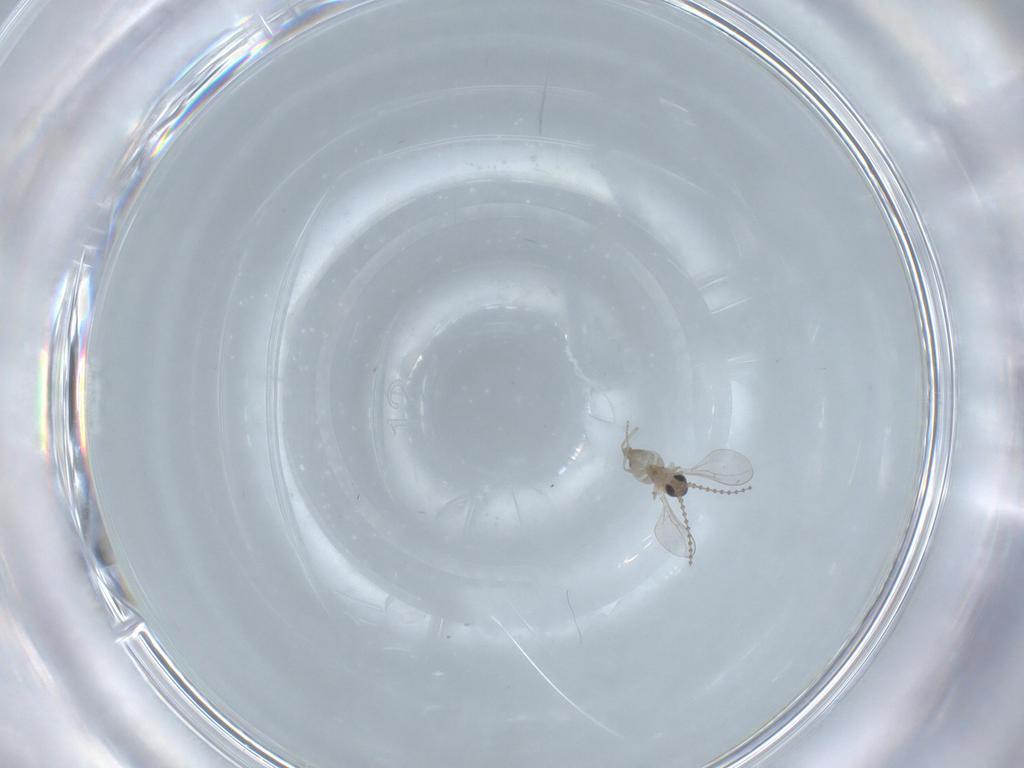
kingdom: Animalia
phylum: Arthropoda
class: Insecta
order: Diptera
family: Cecidomyiidae
